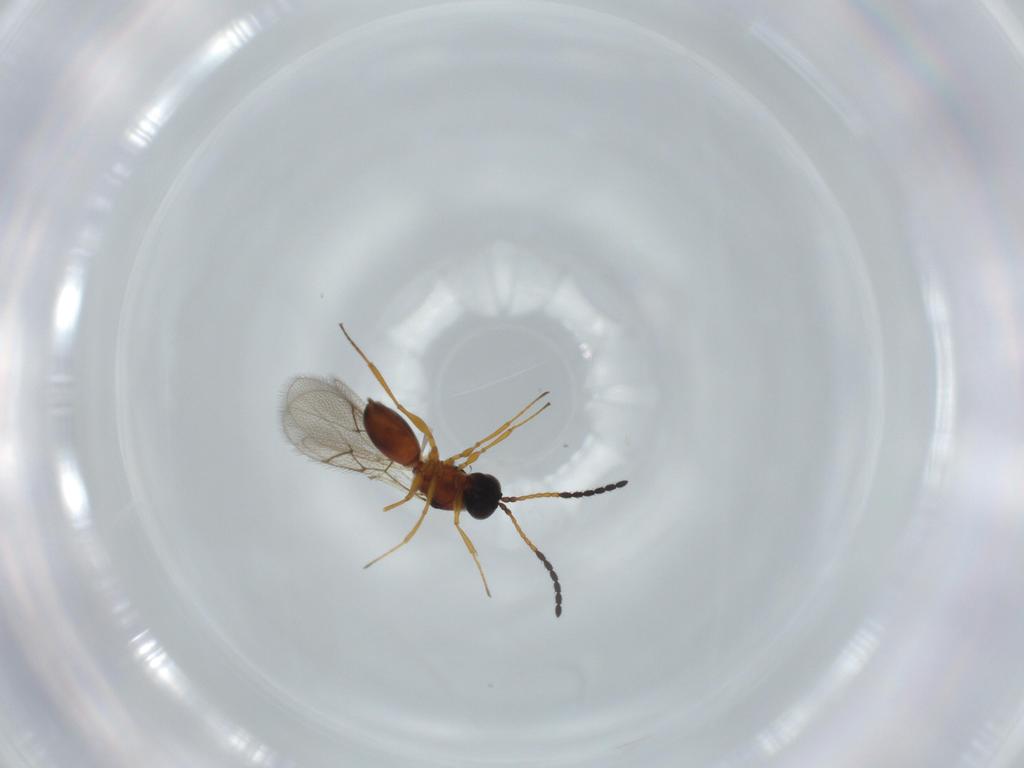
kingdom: Animalia
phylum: Arthropoda
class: Insecta
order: Hymenoptera
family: Figitidae
